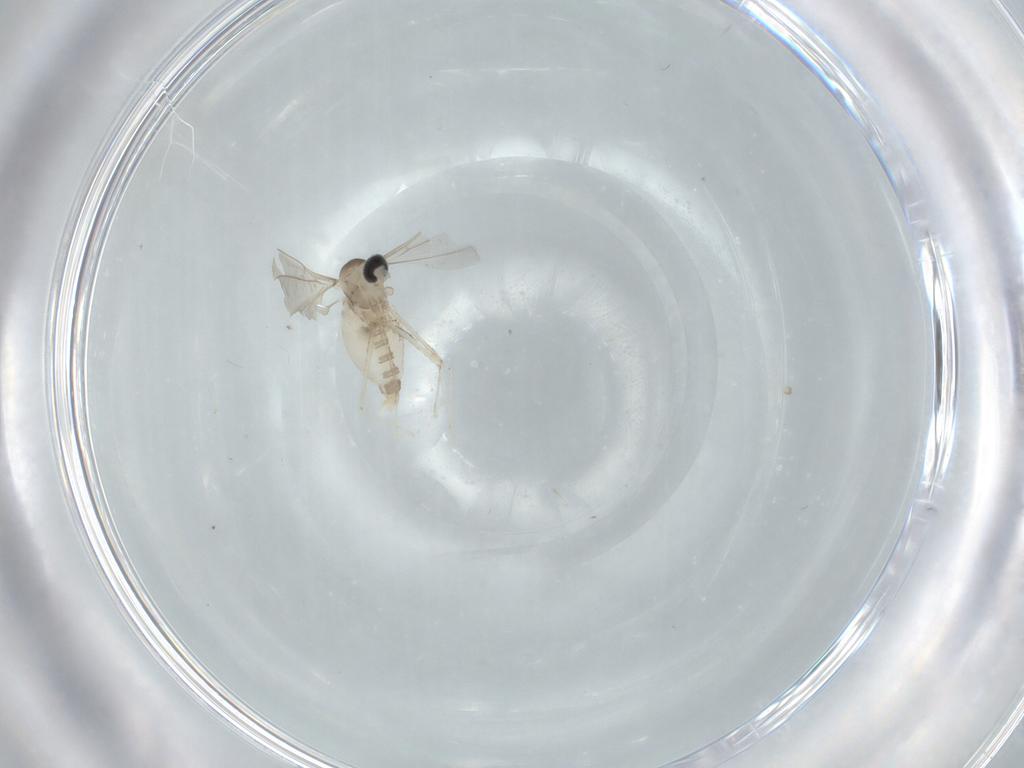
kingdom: Animalia
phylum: Arthropoda
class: Insecta
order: Diptera
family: Cecidomyiidae
